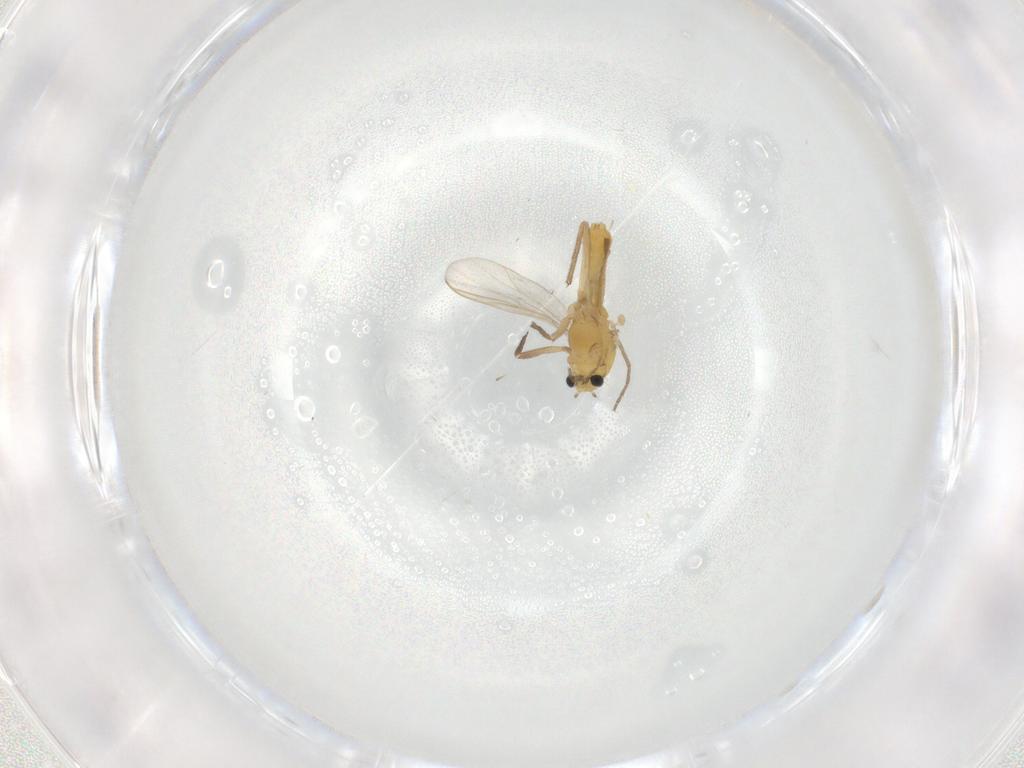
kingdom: Animalia
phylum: Arthropoda
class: Insecta
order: Diptera
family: Chironomidae
